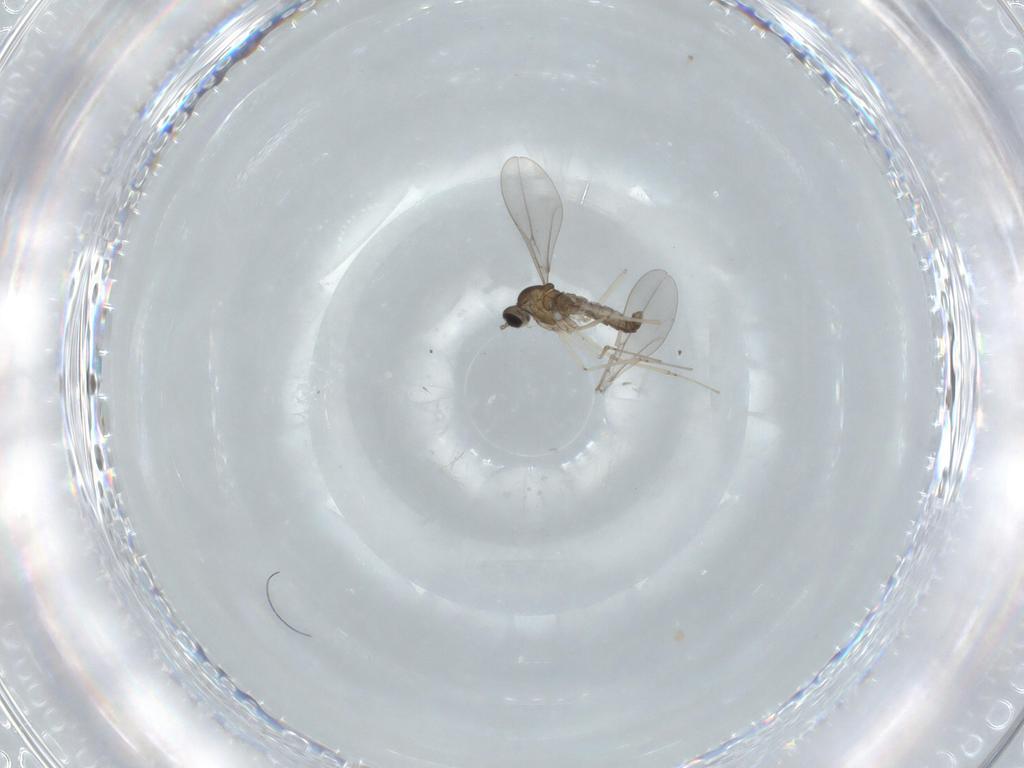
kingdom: Animalia
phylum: Arthropoda
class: Insecta
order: Diptera
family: Cecidomyiidae
